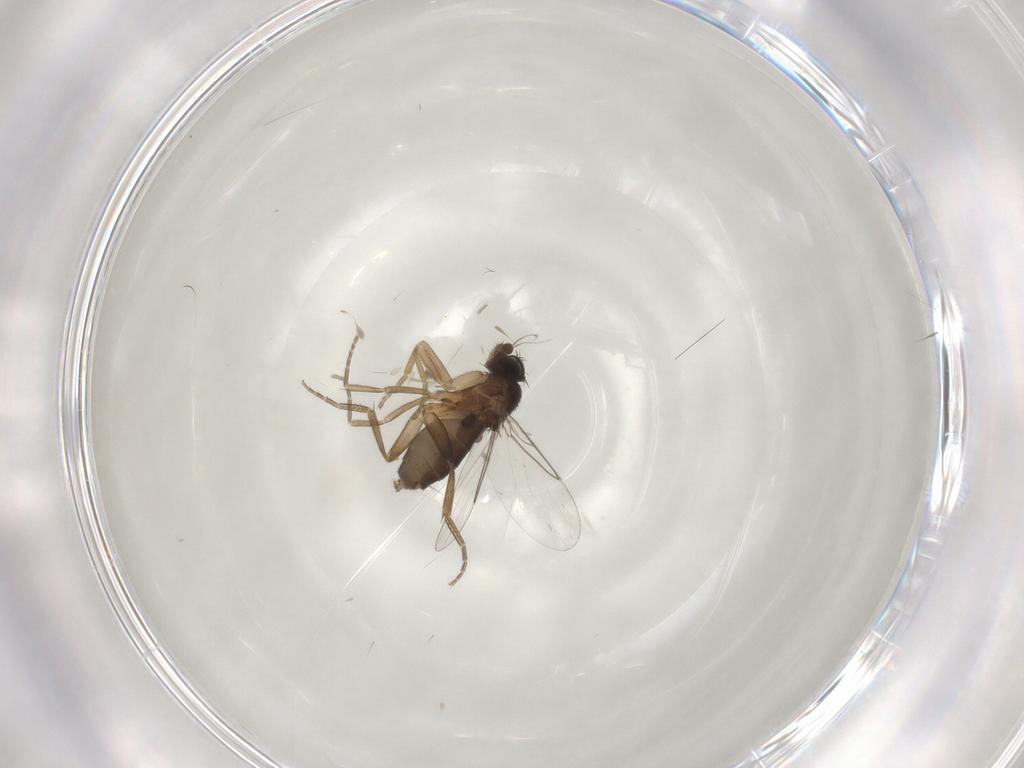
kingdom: Animalia
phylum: Arthropoda
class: Insecta
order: Diptera
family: Phoridae
